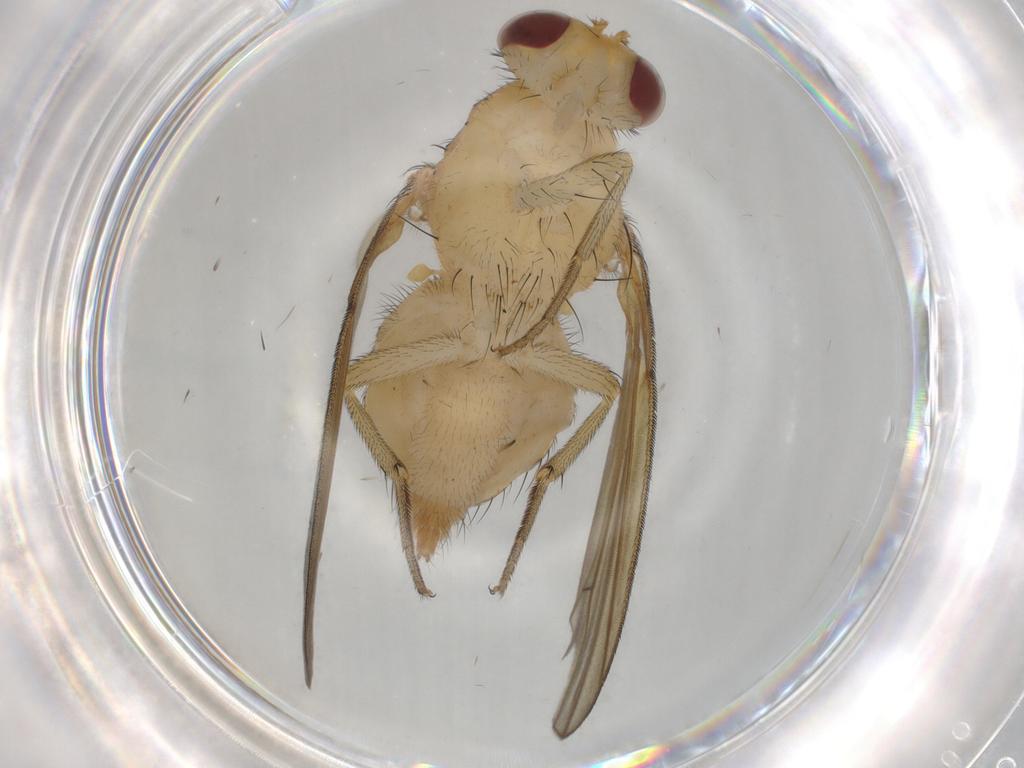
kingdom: Animalia
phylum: Arthropoda
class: Insecta
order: Diptera
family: Ceratopogonidae
